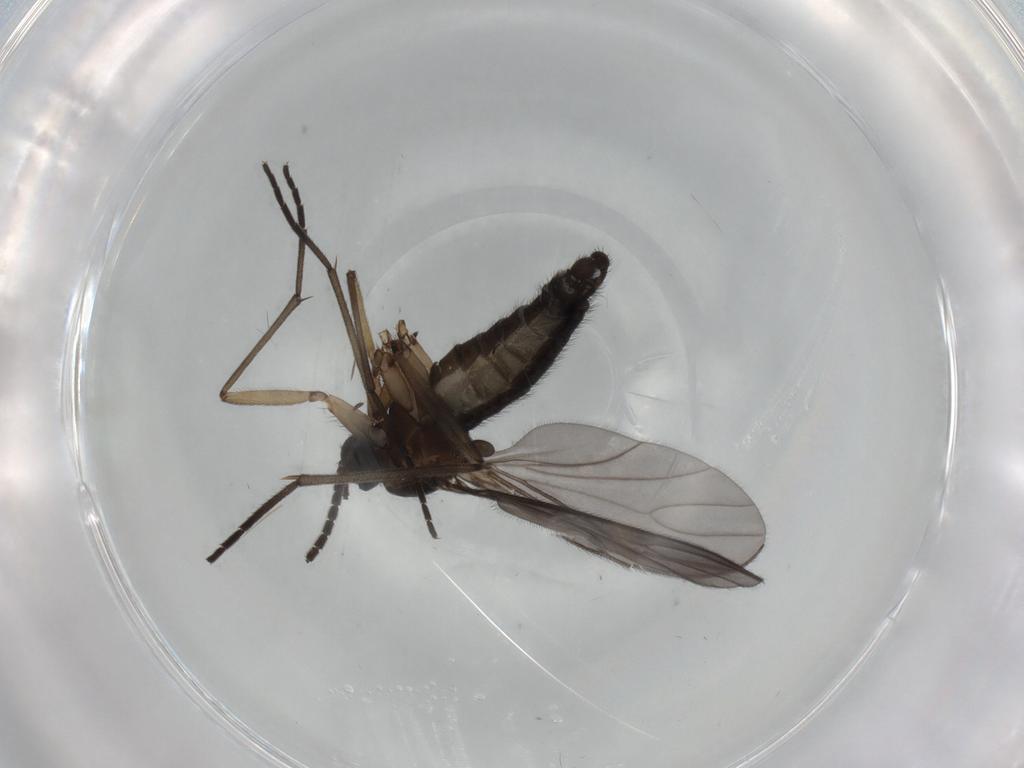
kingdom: Animalia
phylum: Arthropoda
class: Insecta
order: Diptera
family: Sciaridae
